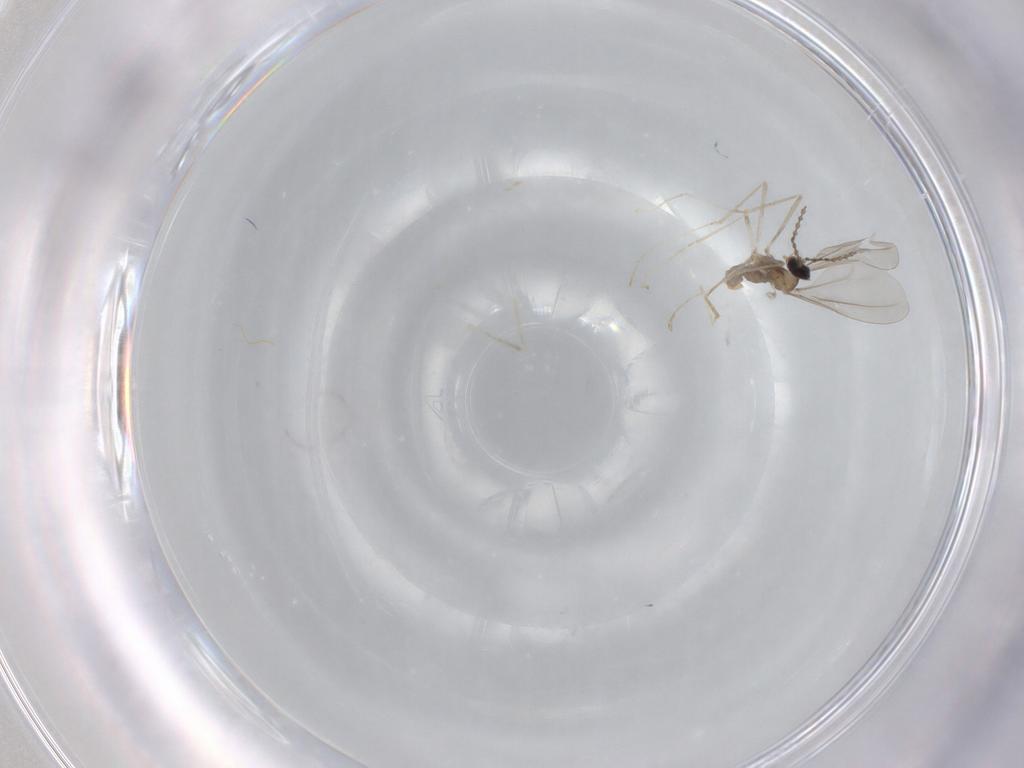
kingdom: Animalia
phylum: Arthropoda
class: Insecta
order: Diptera
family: Cecidomyiidae
